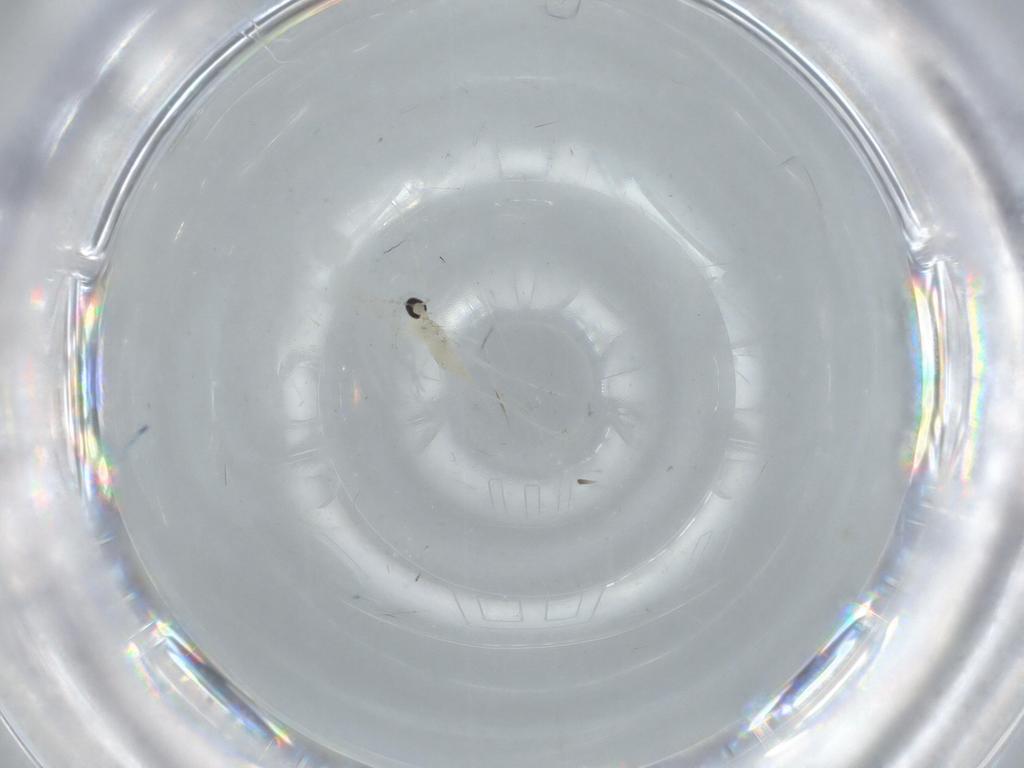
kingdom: Animalia
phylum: Arthropoda
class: Insecta
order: Diptera
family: Cecidomyiidae
